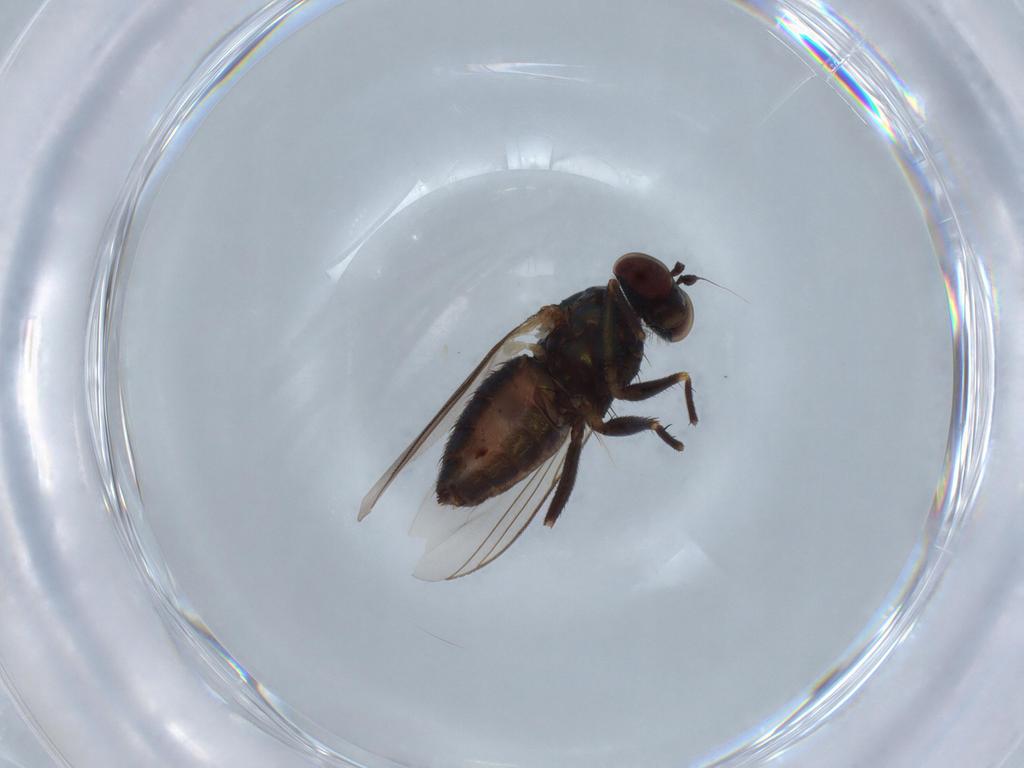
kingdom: Animalia
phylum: Arthropoda
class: Insecta
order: Diptera
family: Dolichopodidae
